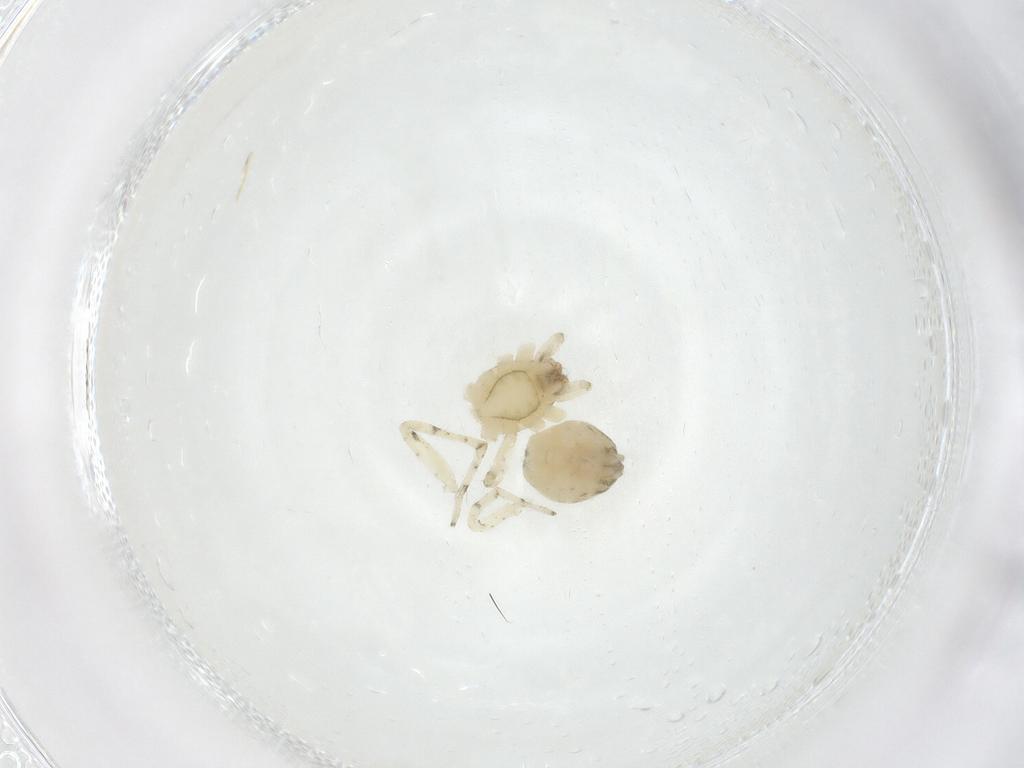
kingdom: Animalia
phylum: Arthropoda
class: Arachnida
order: Araneae
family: Anyphaenidae
